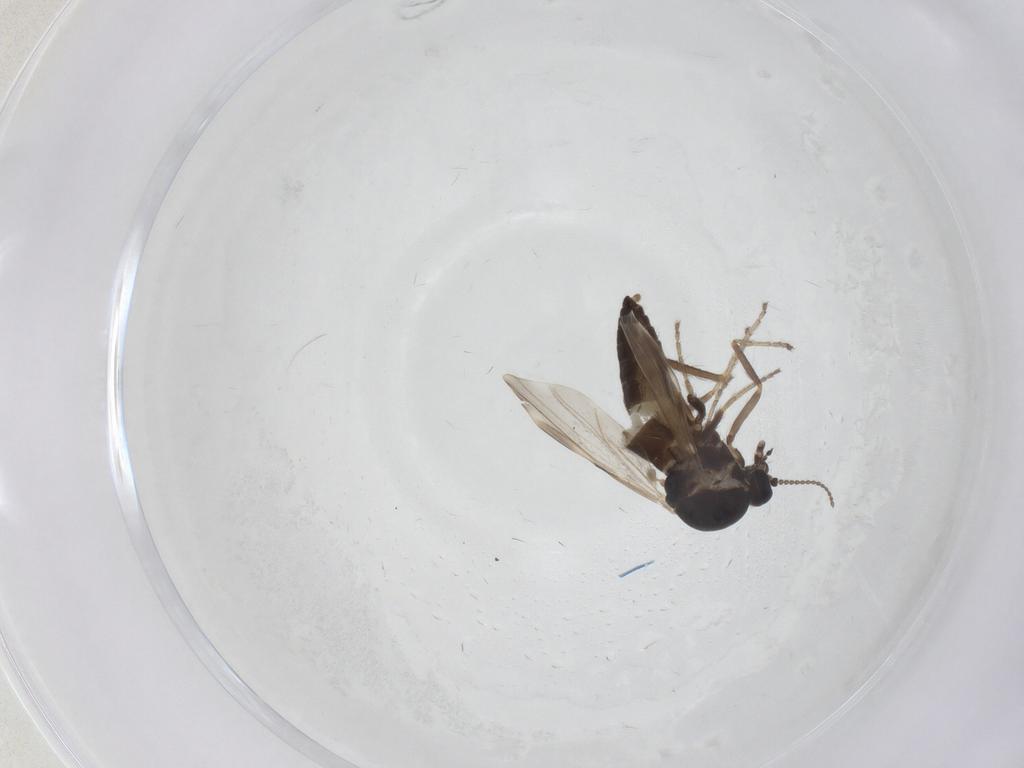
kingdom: Animalia
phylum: Arthropoda
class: Insecta
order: Diptera
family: Ceratopogonidae
